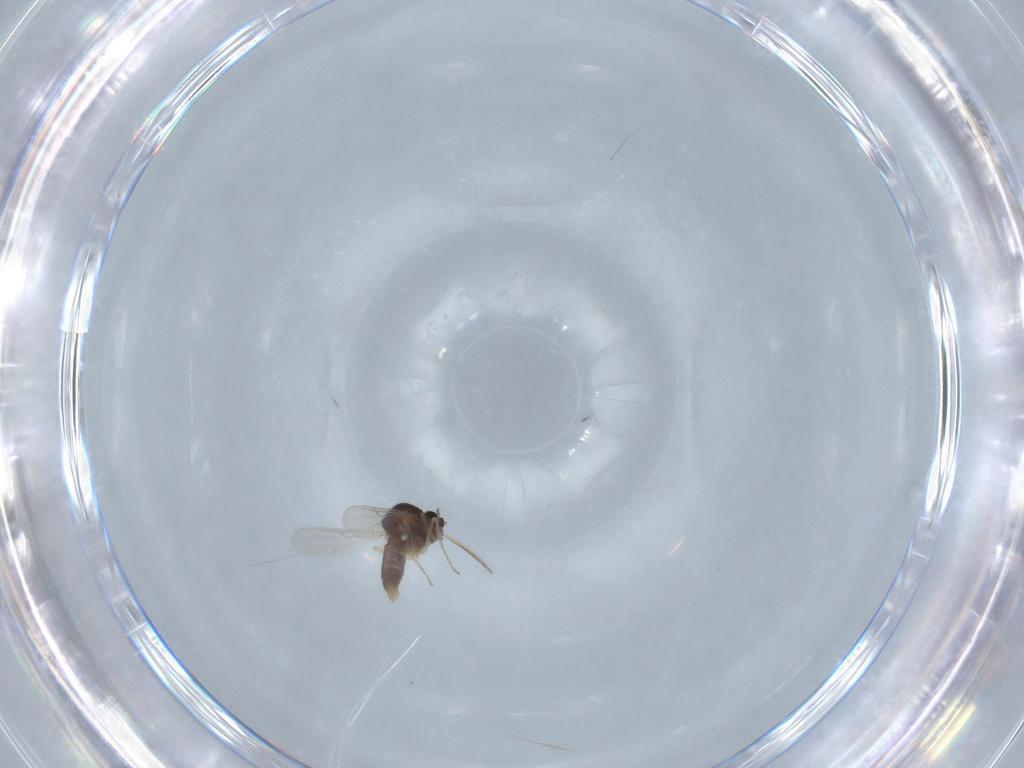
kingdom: Animalia
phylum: Arthropoda
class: Insecta
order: Diptera
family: Ceratopogonidae
